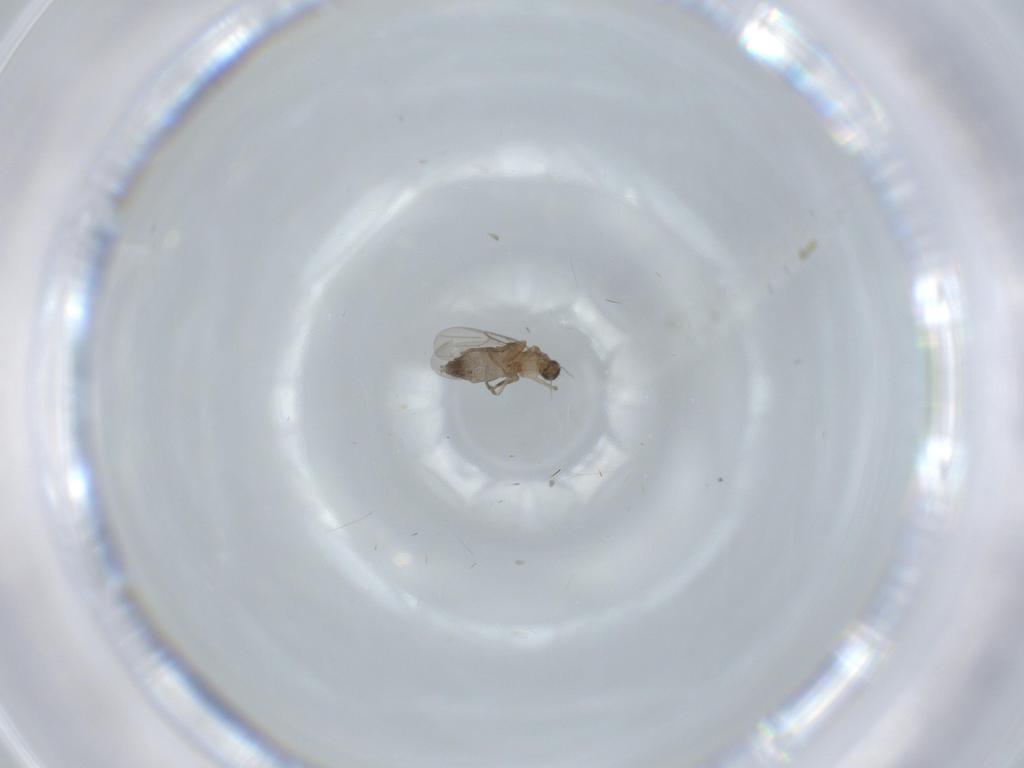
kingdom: Animalia
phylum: Arthropoda
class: Insecta
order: Diptera
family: Phoridae
